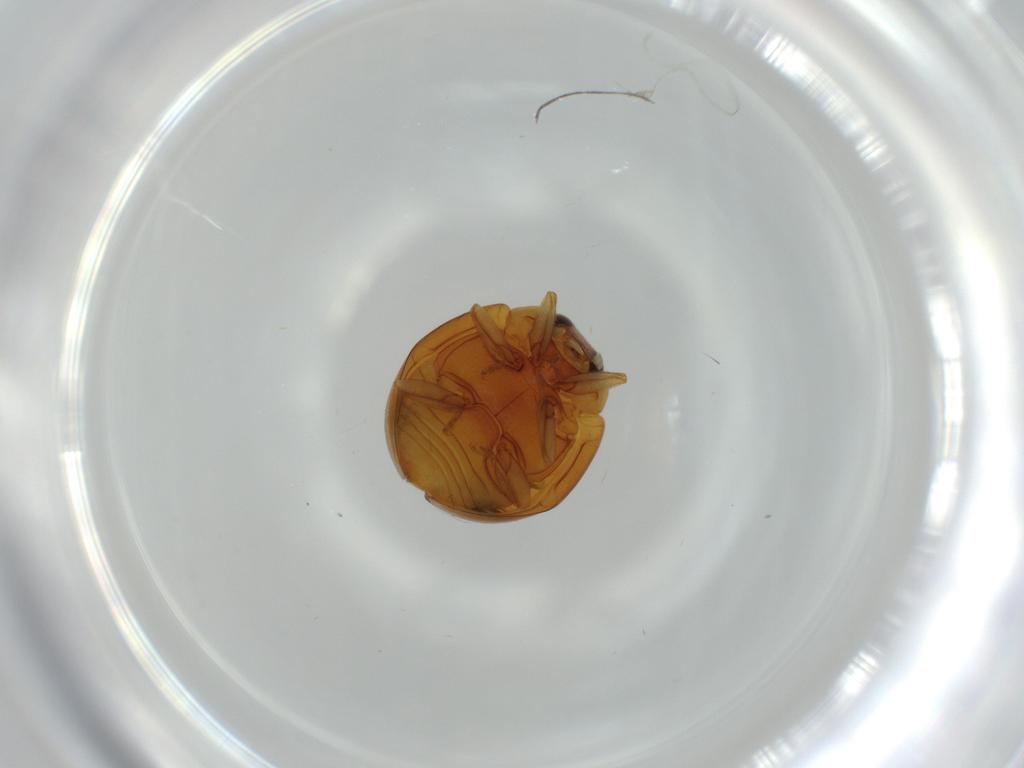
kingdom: Animalia
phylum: Arthropoda
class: Insecta
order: Coleoptera
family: Coccinellidae
